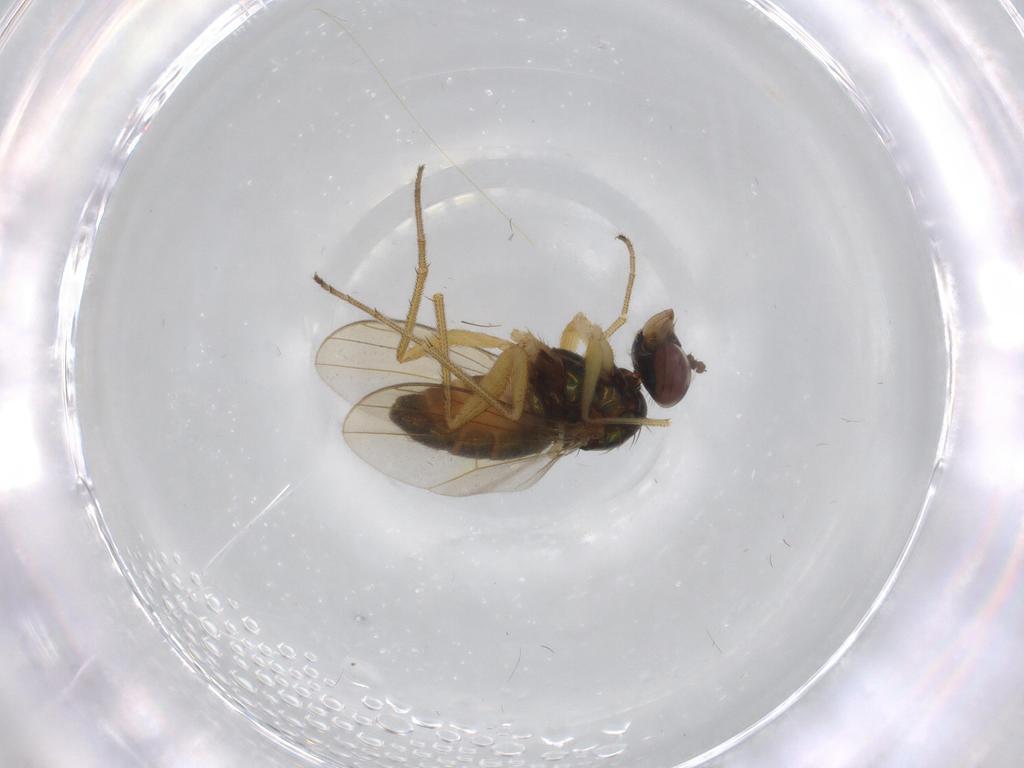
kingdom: Animalia
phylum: Arthropoda
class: Insecta
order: Diptera
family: Dolichopodidae
